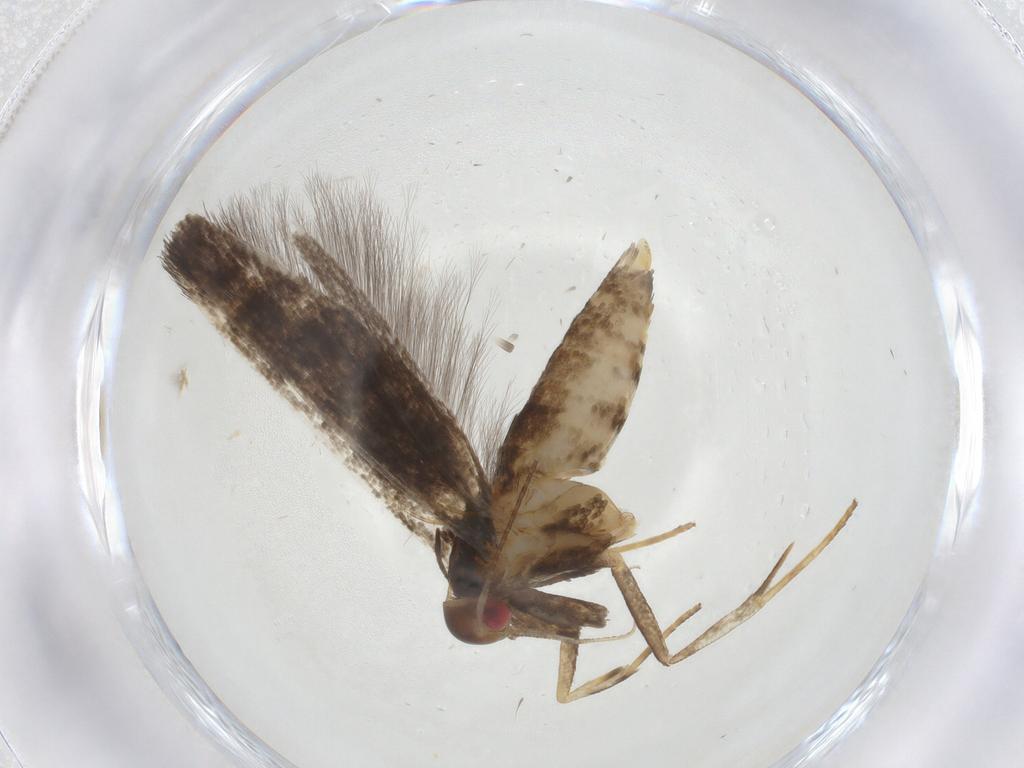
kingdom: Animalia
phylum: Arthropoda
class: Insecta
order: Lepidoptera
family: Gelechiidae
